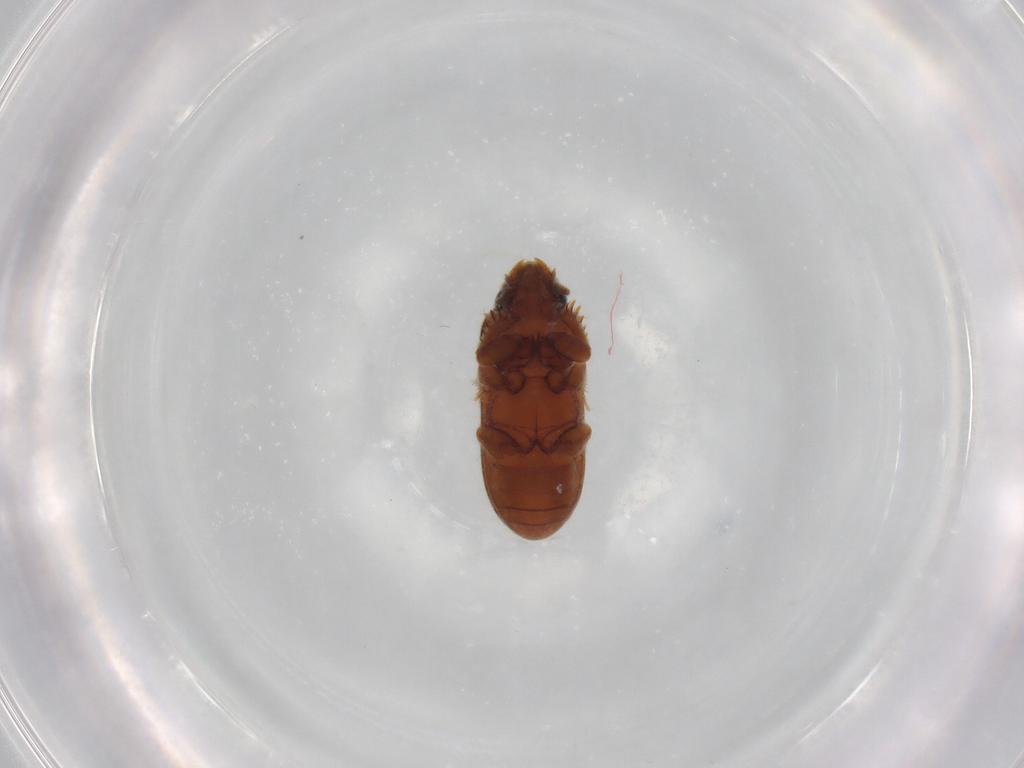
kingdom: Animalia
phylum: Arthropoda
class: Insecta
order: Coleoptera
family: Heteroceridae
